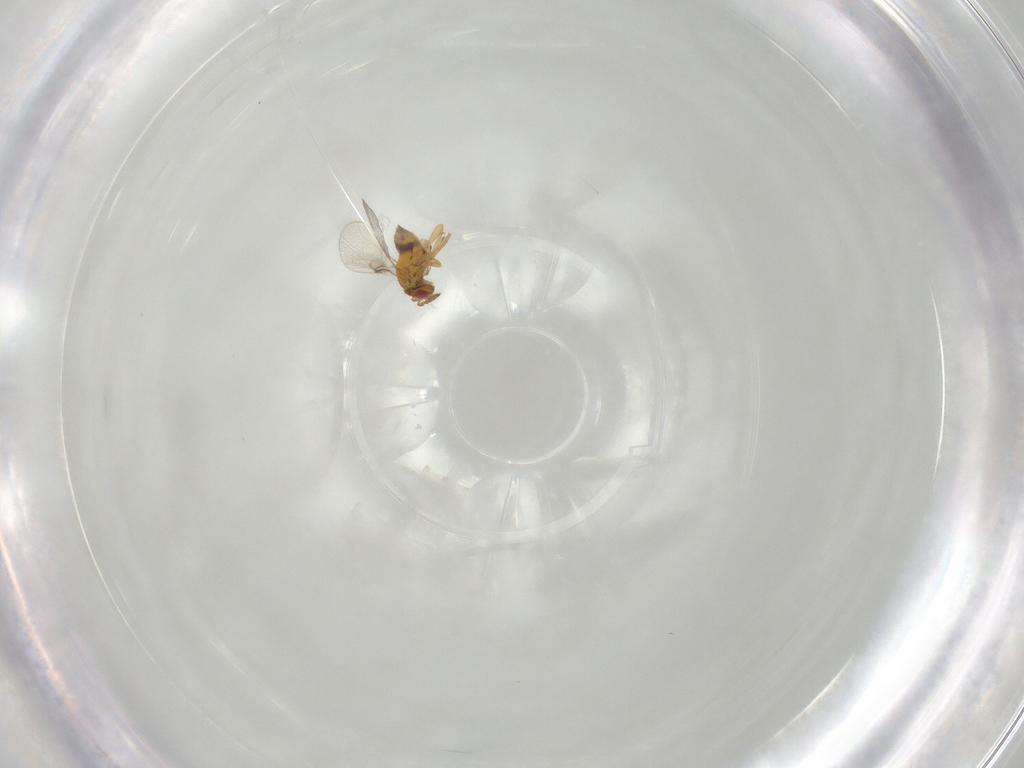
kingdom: Animalia
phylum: Arthropoda
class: Insecta
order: Hymenoptera
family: Trichogrammatidae
